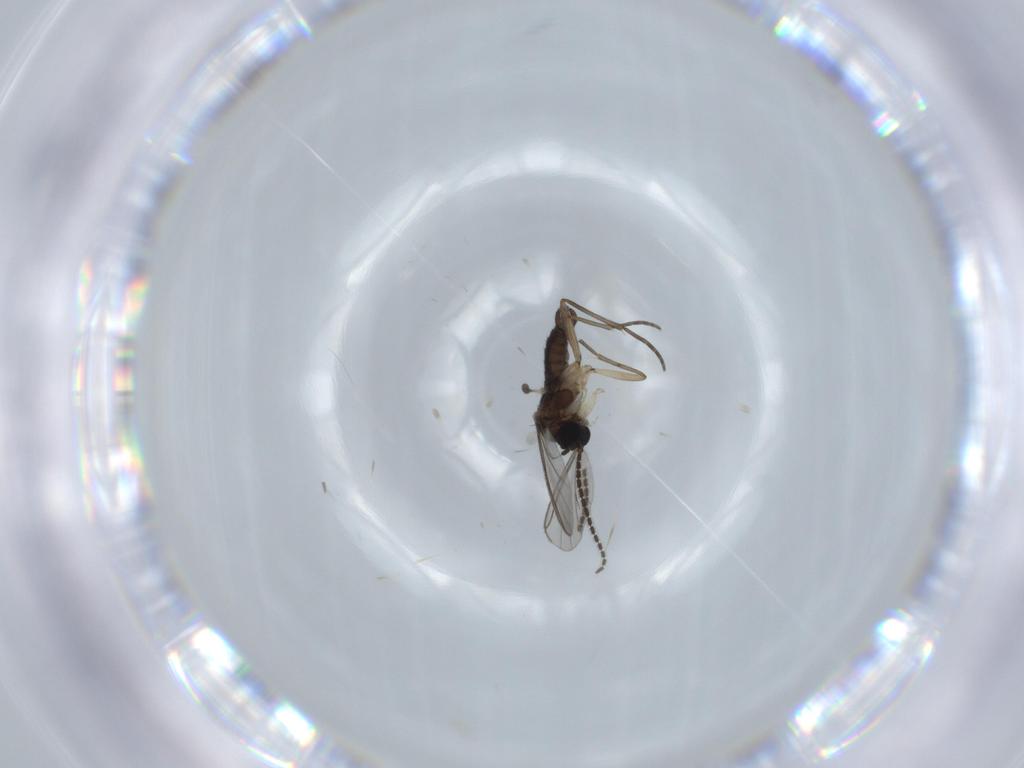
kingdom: Animalia
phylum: Arthropoda
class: Insecta
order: Diptera
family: Sciaridae
